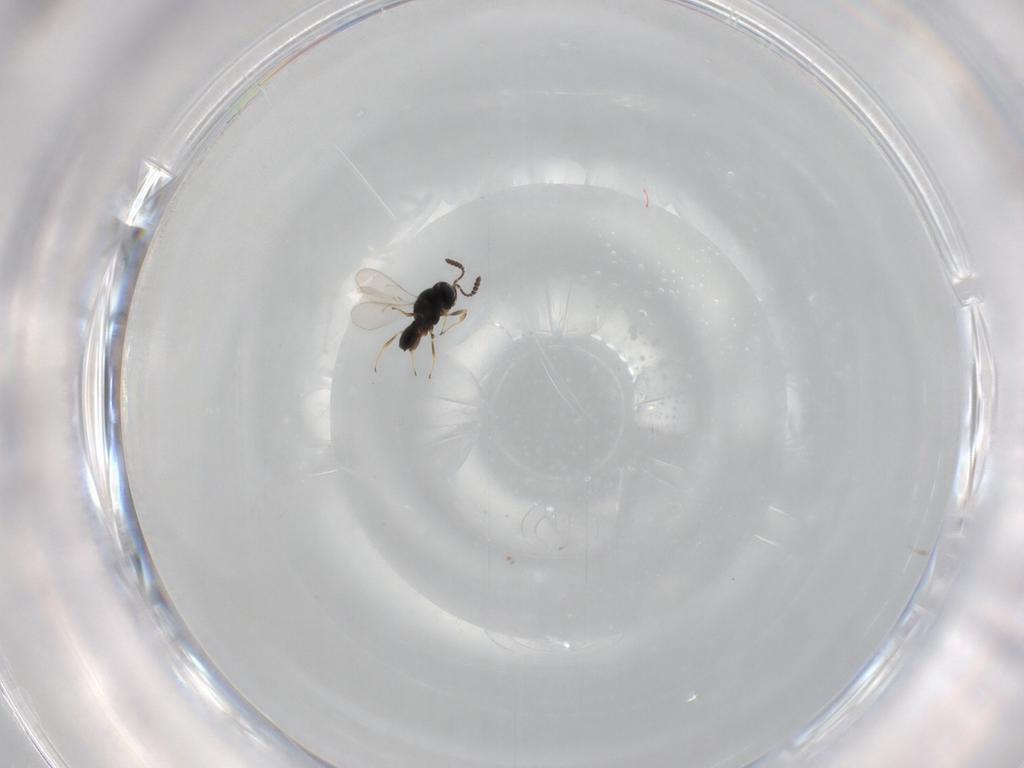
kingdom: Animalia
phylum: Arthropoda
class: Insecta
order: Hymenoptera
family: Scelionidae
